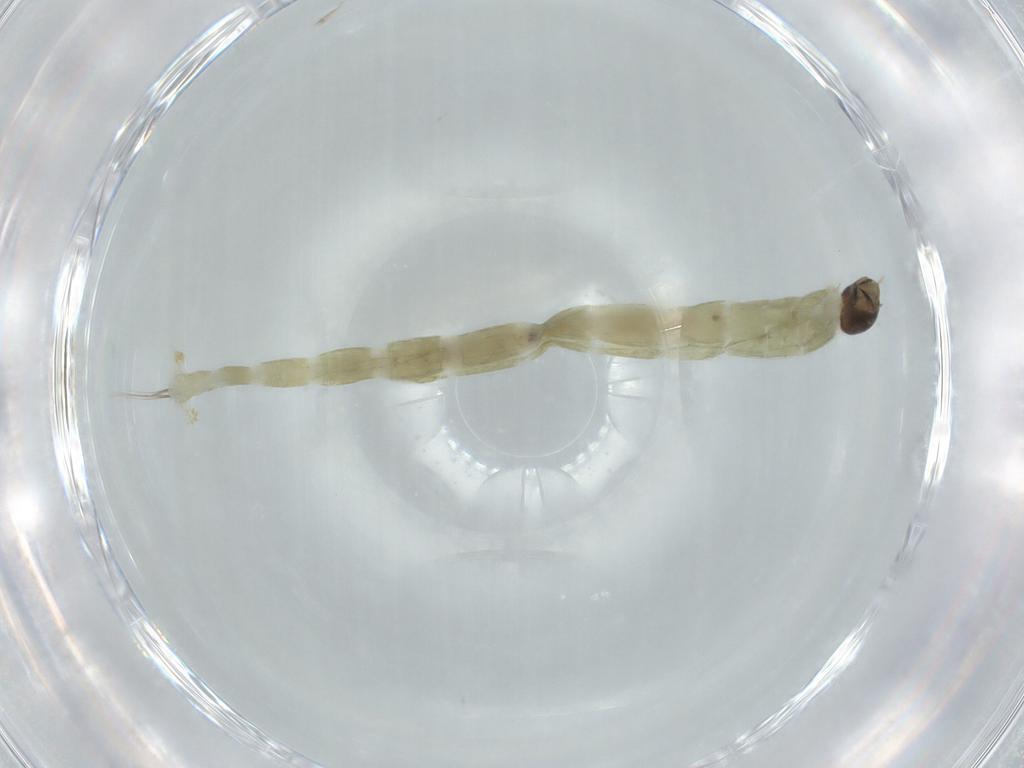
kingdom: Animalia
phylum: Arthropoda
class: Insecta
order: Diptera
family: Chironomidae
